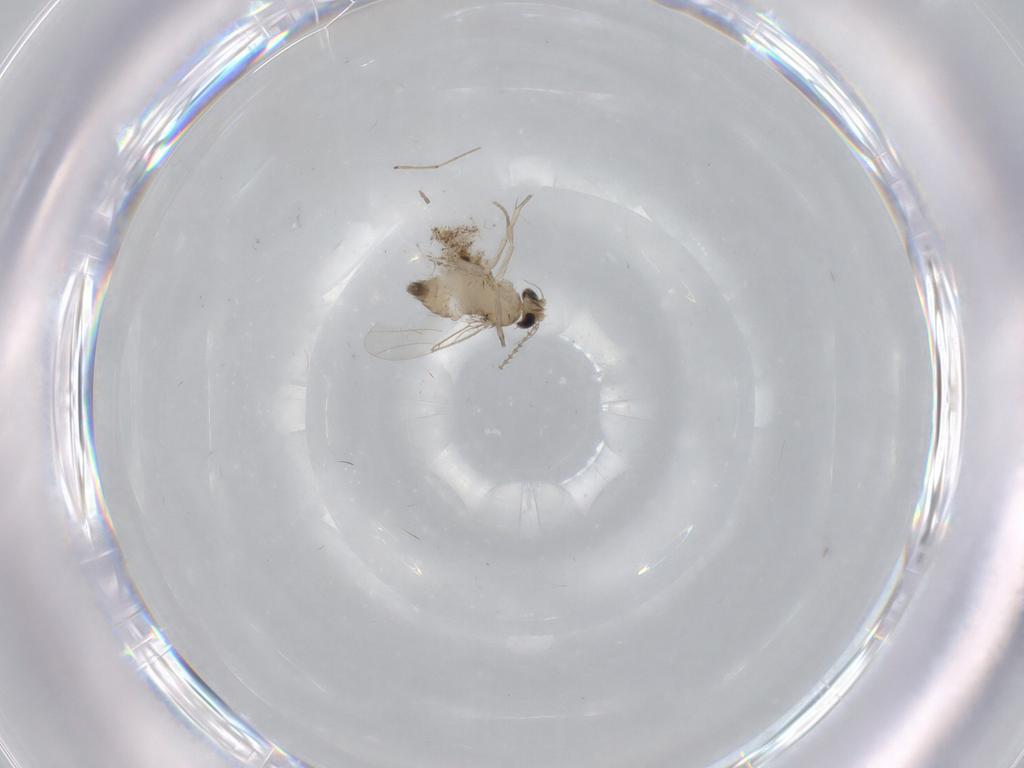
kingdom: Animalia
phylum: Arthropoda
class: Insecta
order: Diptera
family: Phoridae
